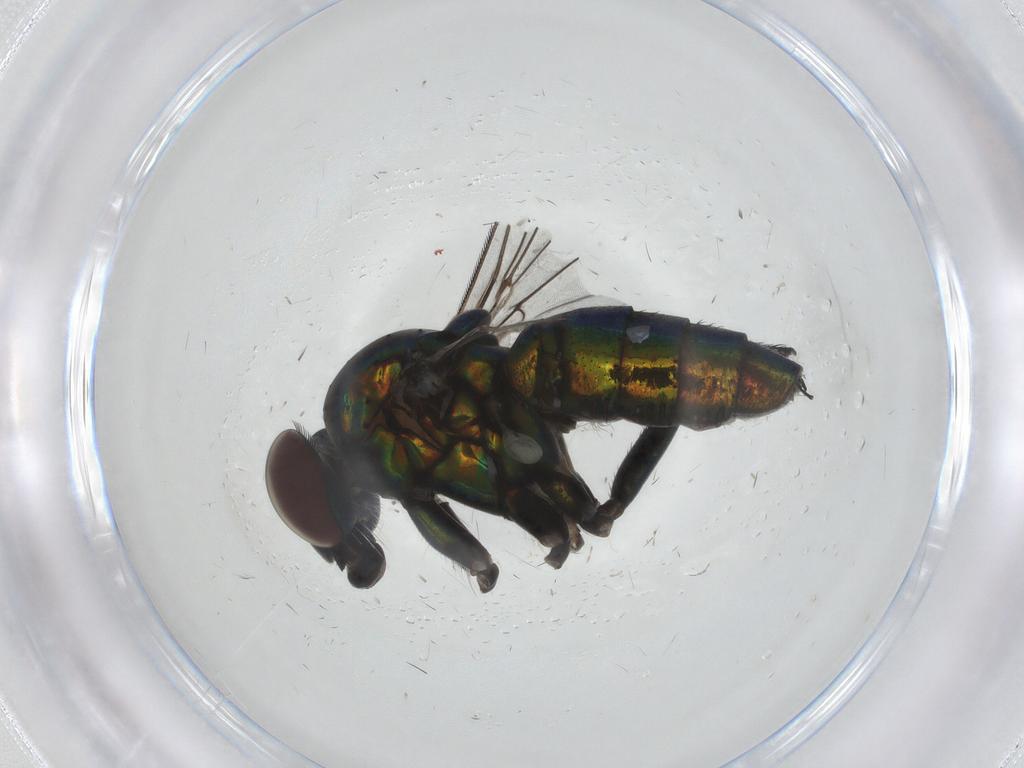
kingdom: Animalia
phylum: Arthropoda
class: Insecta
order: Diptera
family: Dolichopodidae
